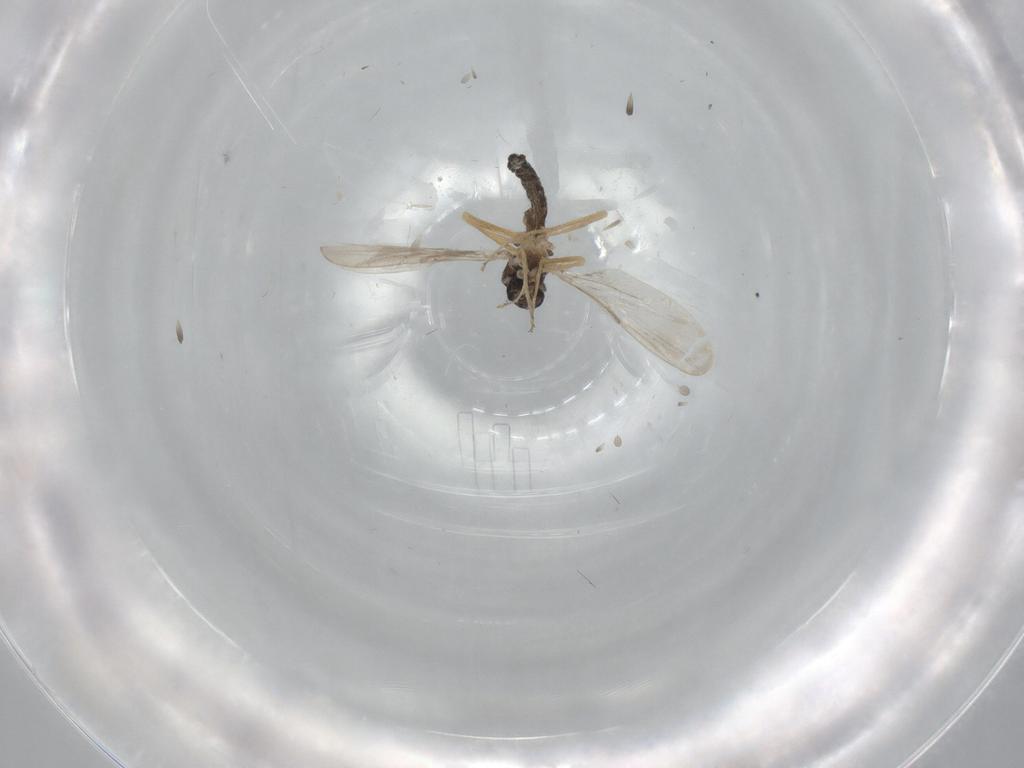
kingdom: Animalia
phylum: Arthropoda
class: Insecta
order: Diptera
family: Ceratopogonidae
